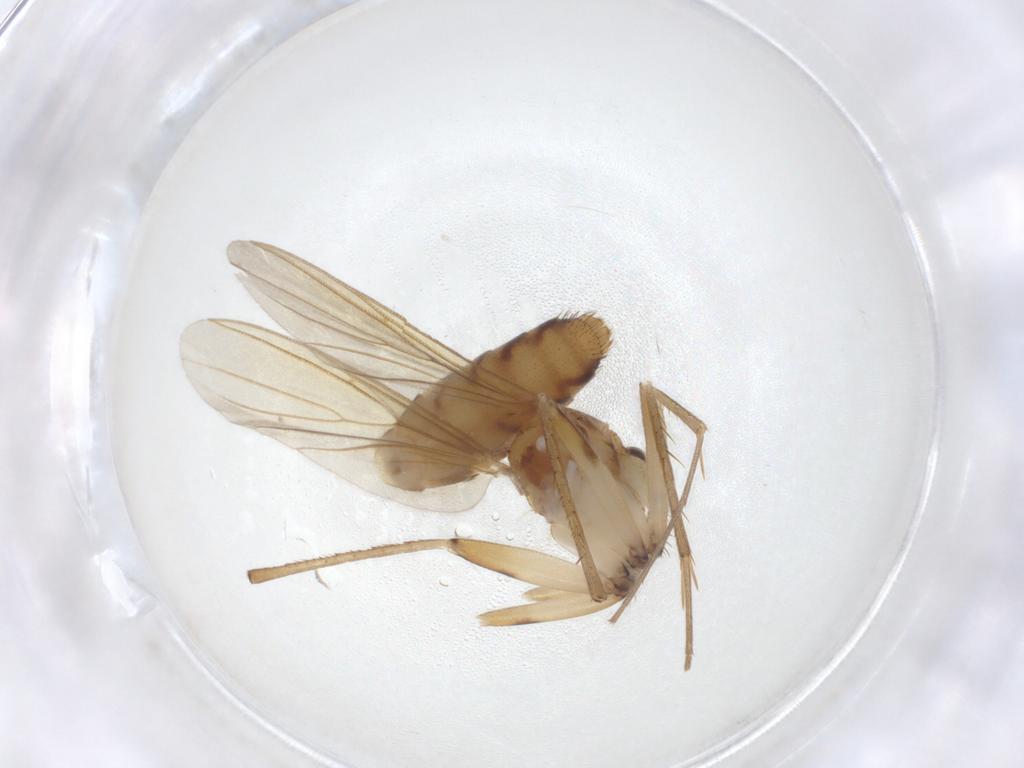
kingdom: Animalia
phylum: Arthropoda
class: Insecta
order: Diptera
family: Mycetophilidae
